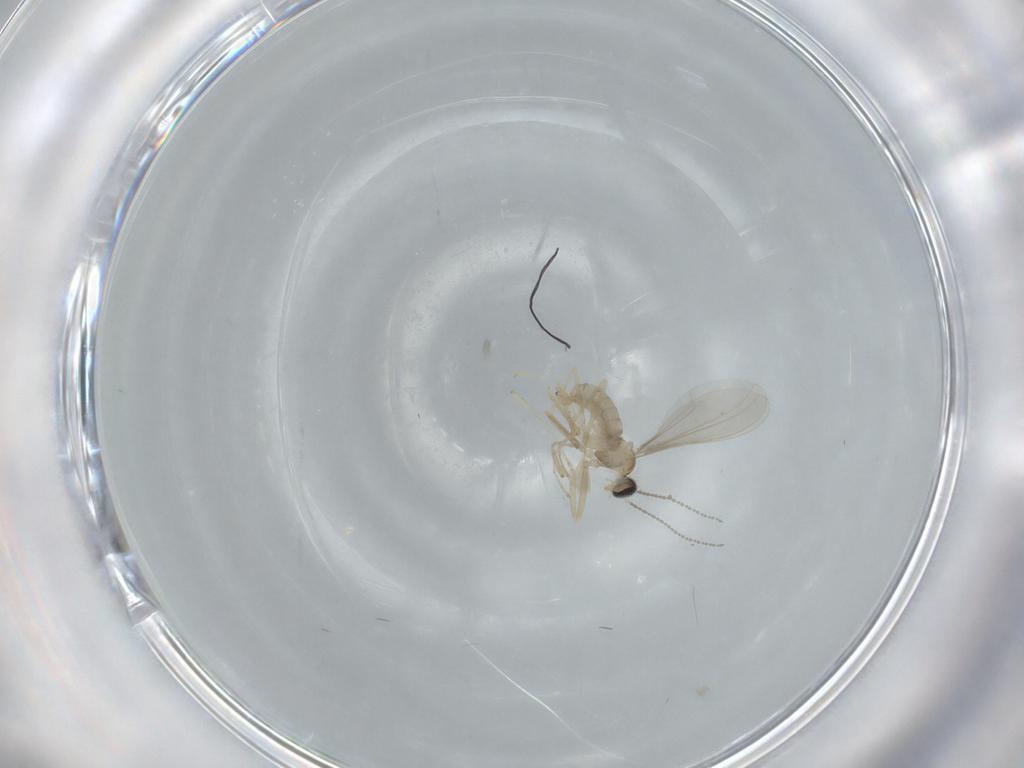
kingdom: Animalia
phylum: Arthropoda
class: Insecta
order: Diptera
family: Cecidomyiidae
